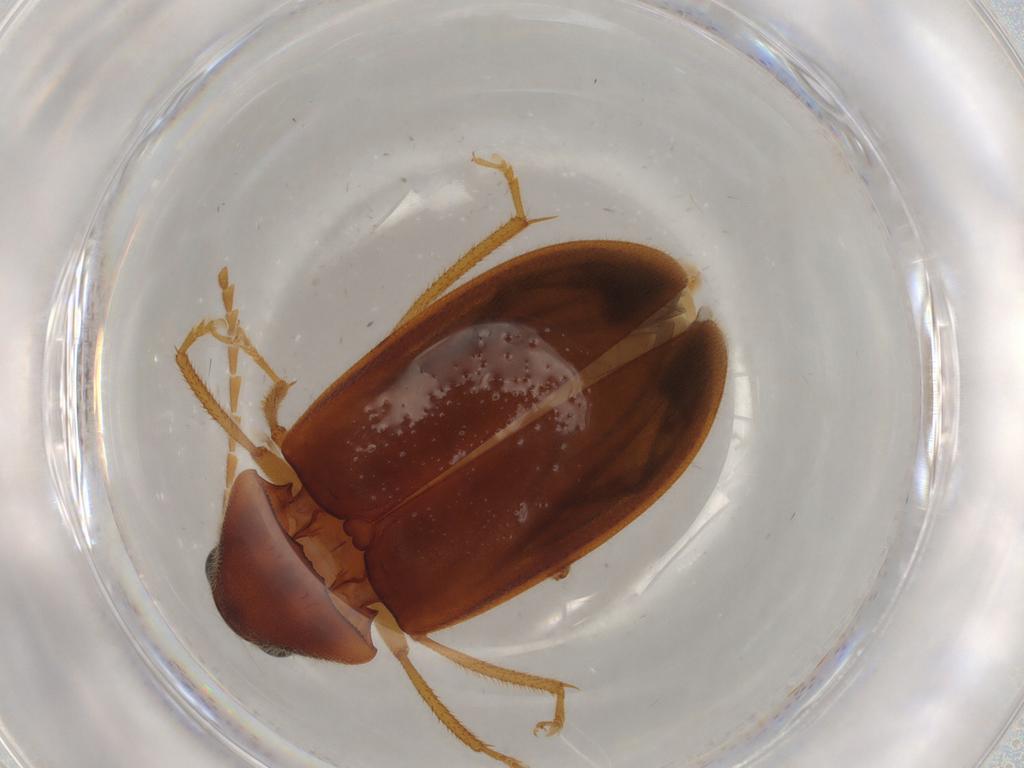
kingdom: Animalia
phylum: Arthropoda
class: Insecta
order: Coleoptera
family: Ptilodactylidae
